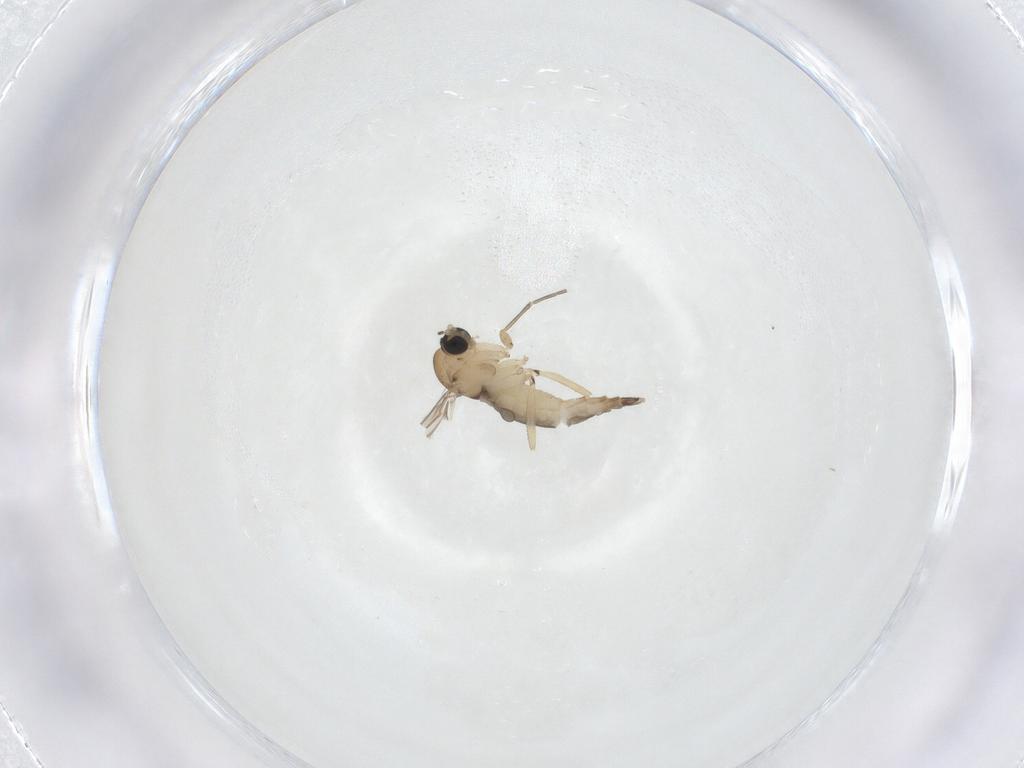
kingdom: Animalia
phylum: Arthropoda
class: Insecta
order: Diptera
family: Sciaridae
